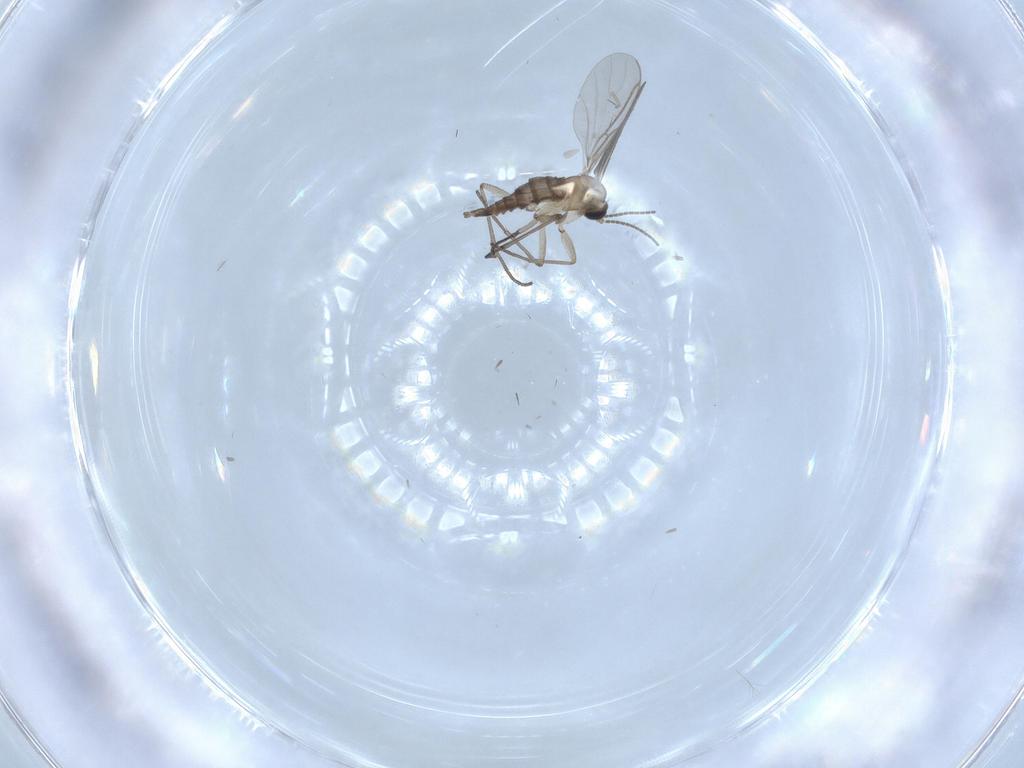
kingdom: Animalia
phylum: Arthropoda
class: Insecta
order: Diptera
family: Sciaridae
